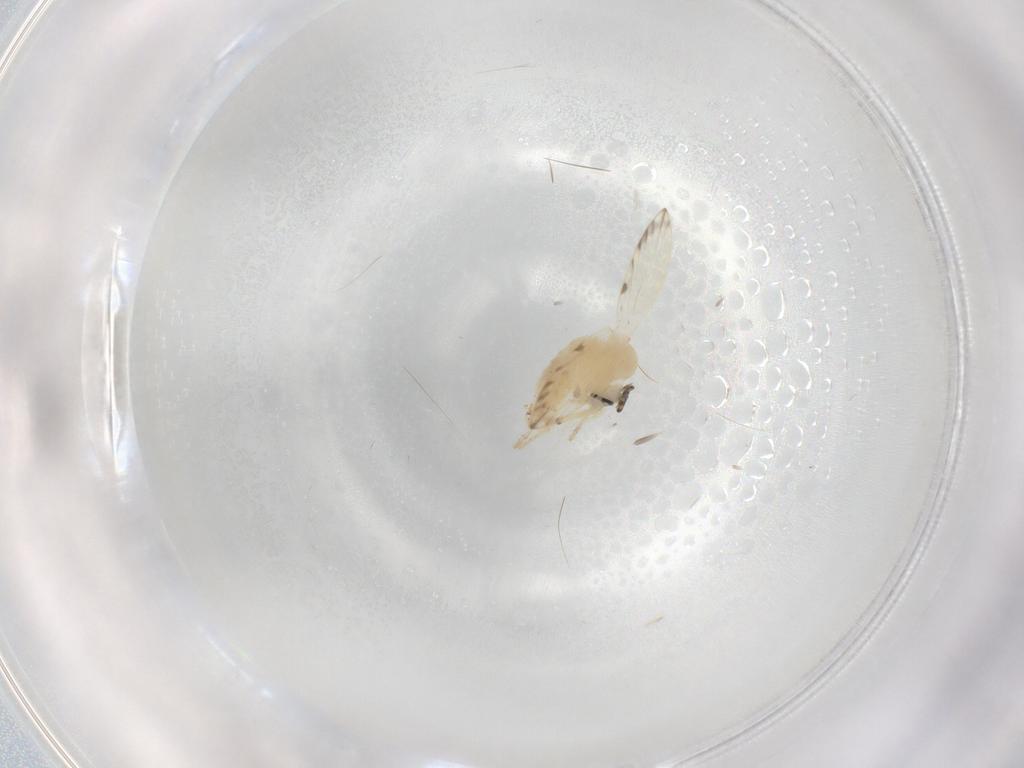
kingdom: Animalia
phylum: Arthropoda
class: Insecta
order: Diptera
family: Psychodidae
